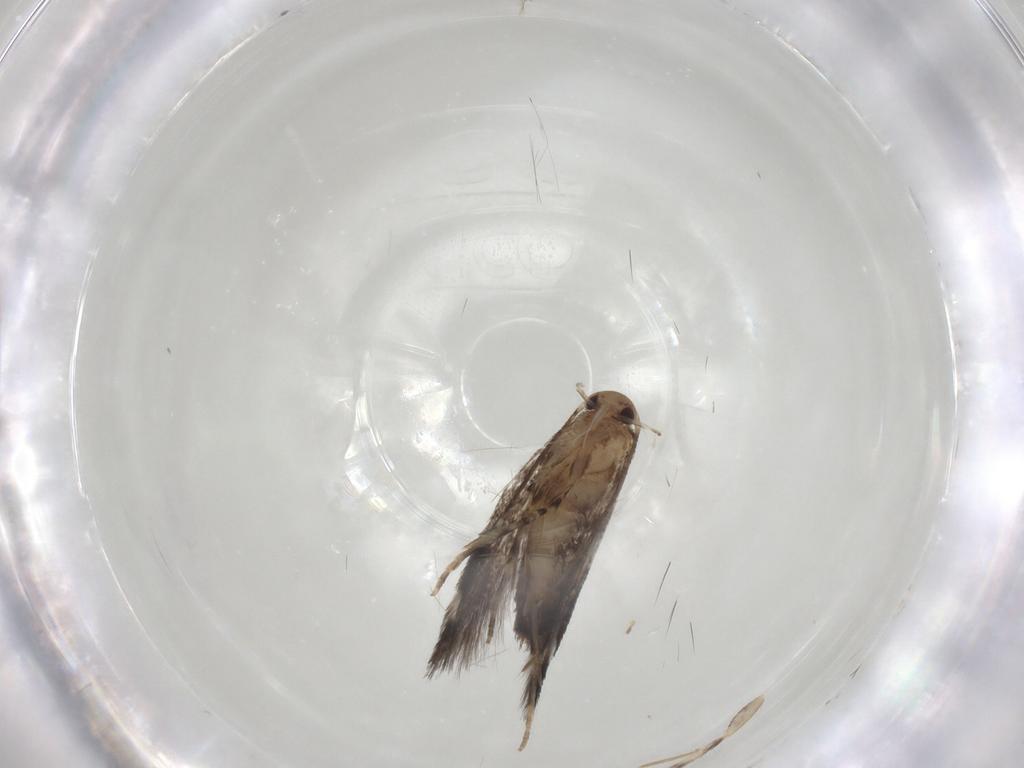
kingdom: Animalia
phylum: Arthropoda
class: Insecta
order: Lepidoptera
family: Elachistidae
